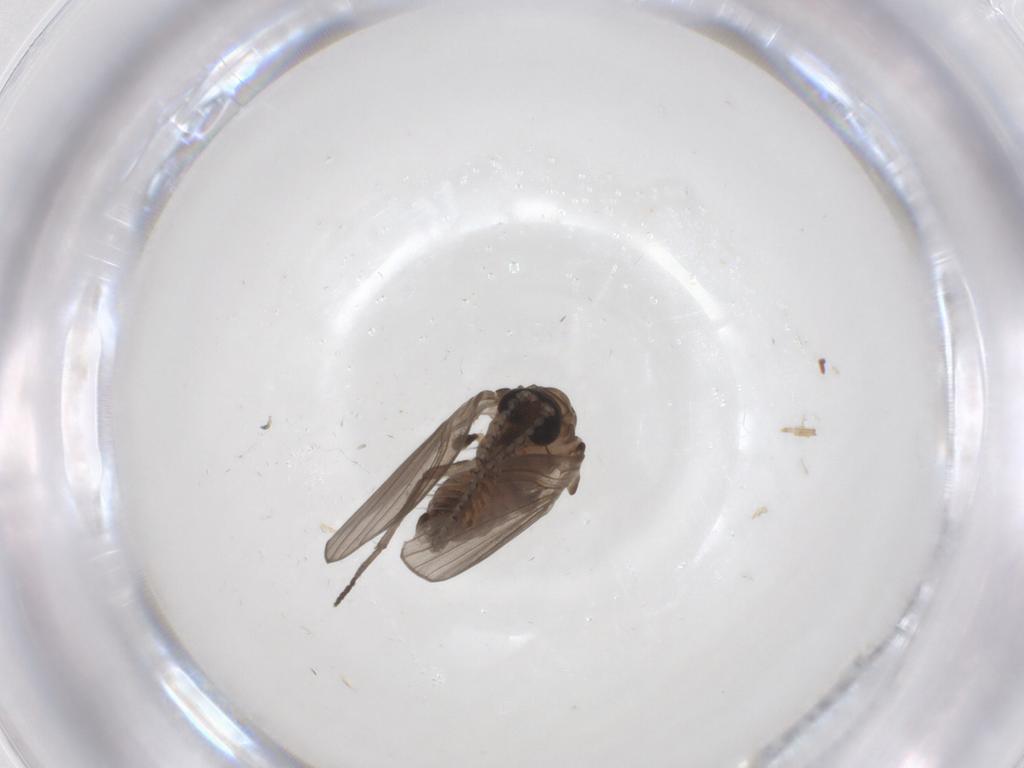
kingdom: Animalia
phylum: Arthropoda
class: Insecta
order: Diptera
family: Psychodidae
